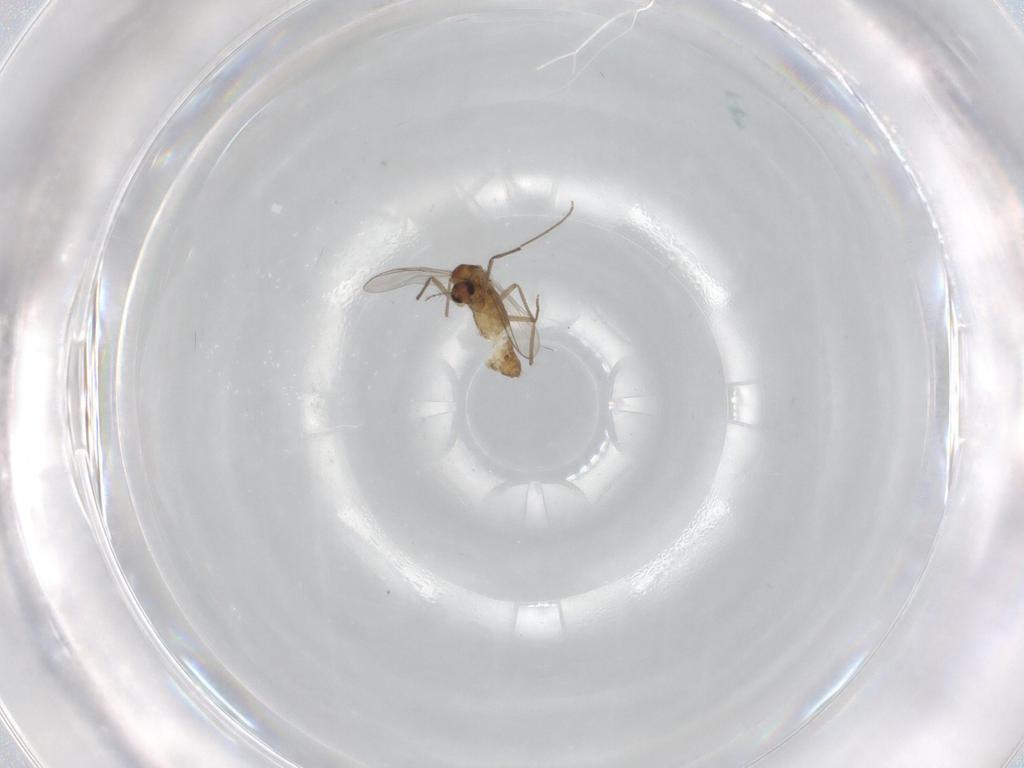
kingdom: Animalia
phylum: Arthropoda
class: Insecta
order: Diptera
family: Chironomidae
